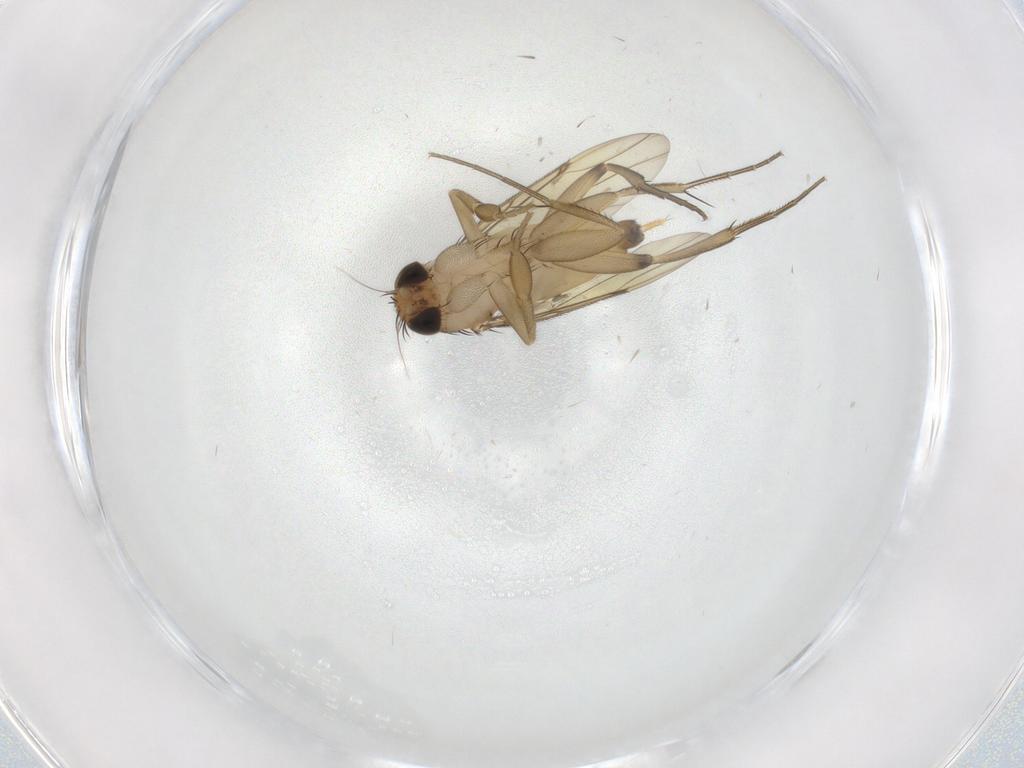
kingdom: Animalia
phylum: Arthropoda
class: Insecta
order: Diptera
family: Phoridae
